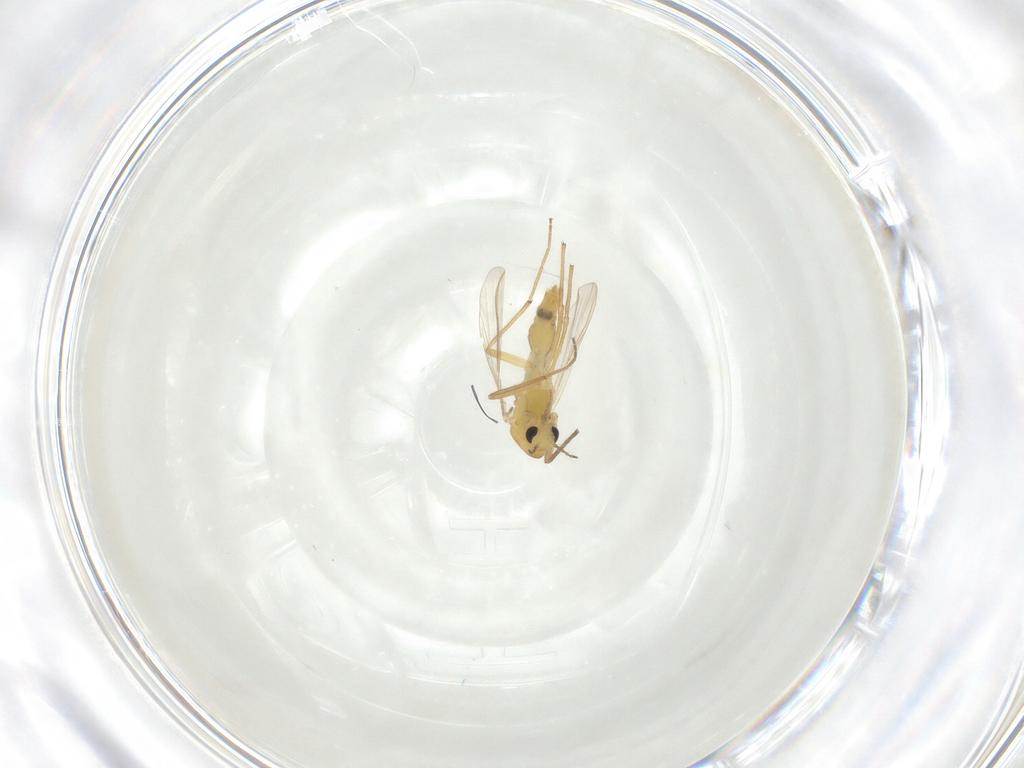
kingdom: Animalia
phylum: Arthropoda
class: Insecta
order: Diptera
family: Chironomidae
